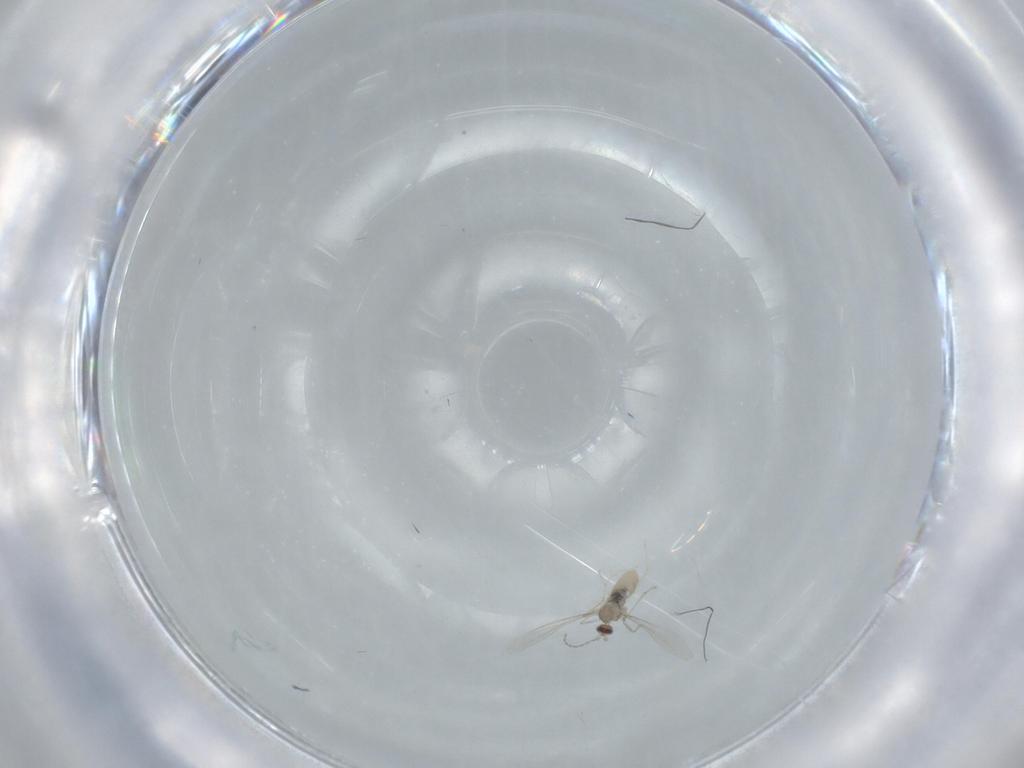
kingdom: Animalia
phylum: Arthropoda
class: Insecta
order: Diptera
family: Cecidomyiidae
